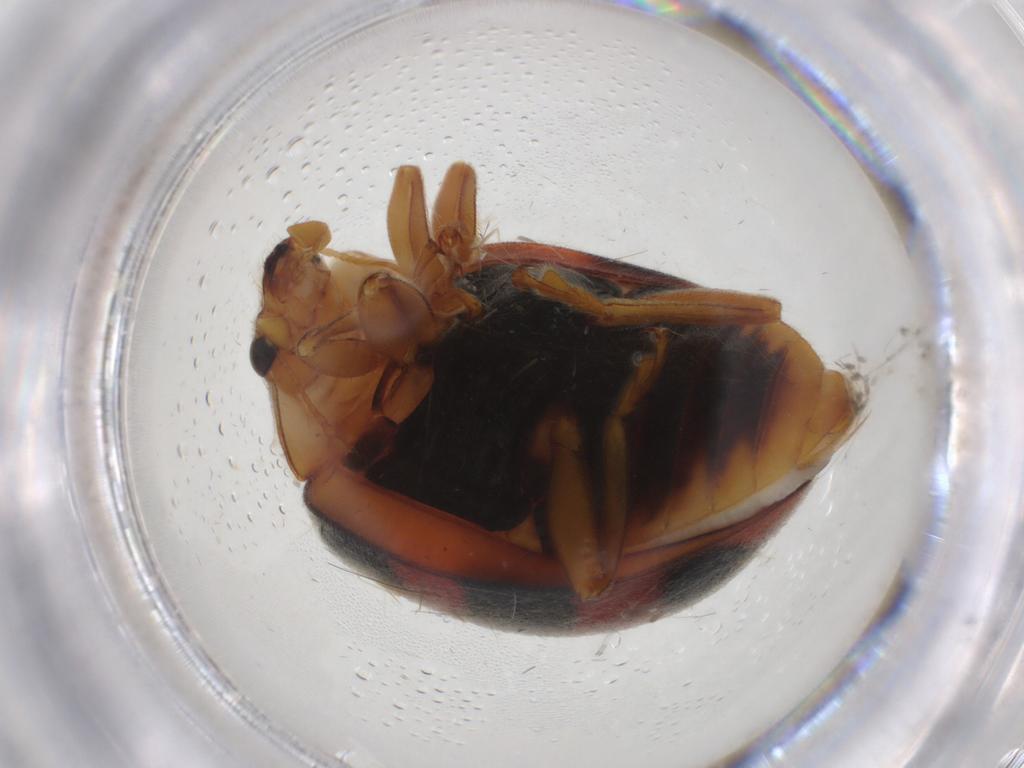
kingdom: Animalia
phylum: Arthropoda
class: Insecta
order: Coleoptera
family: Coccinellidae
